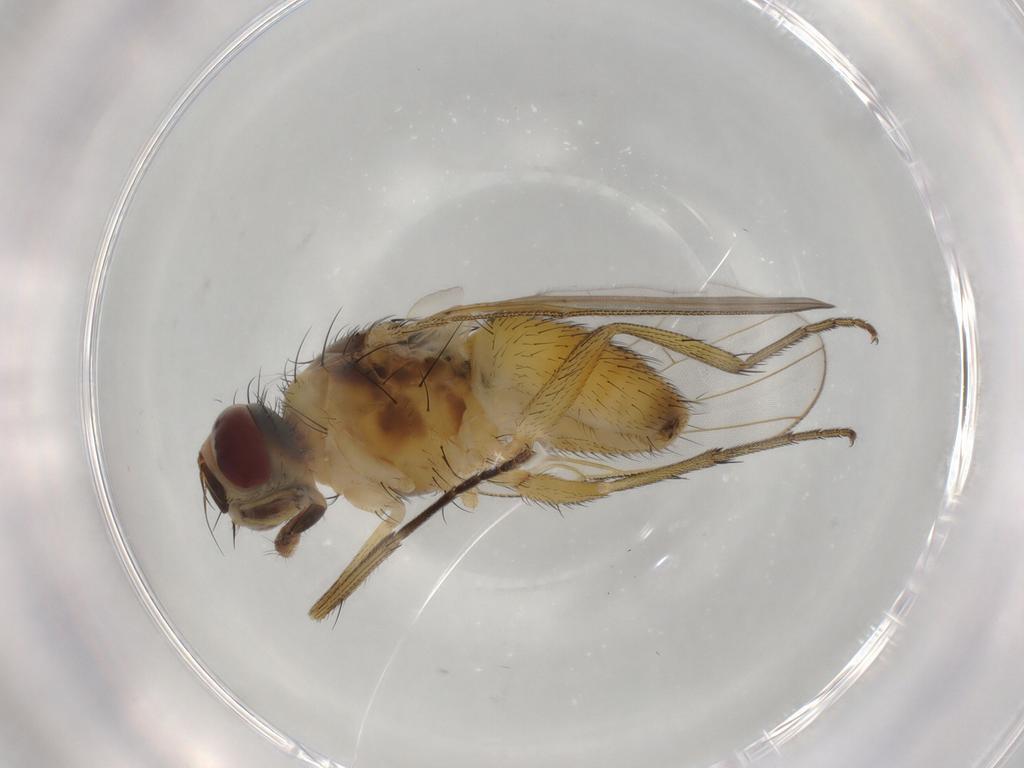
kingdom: Animalia
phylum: Arthropoda
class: Insecta
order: Diptera
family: Muscidae
